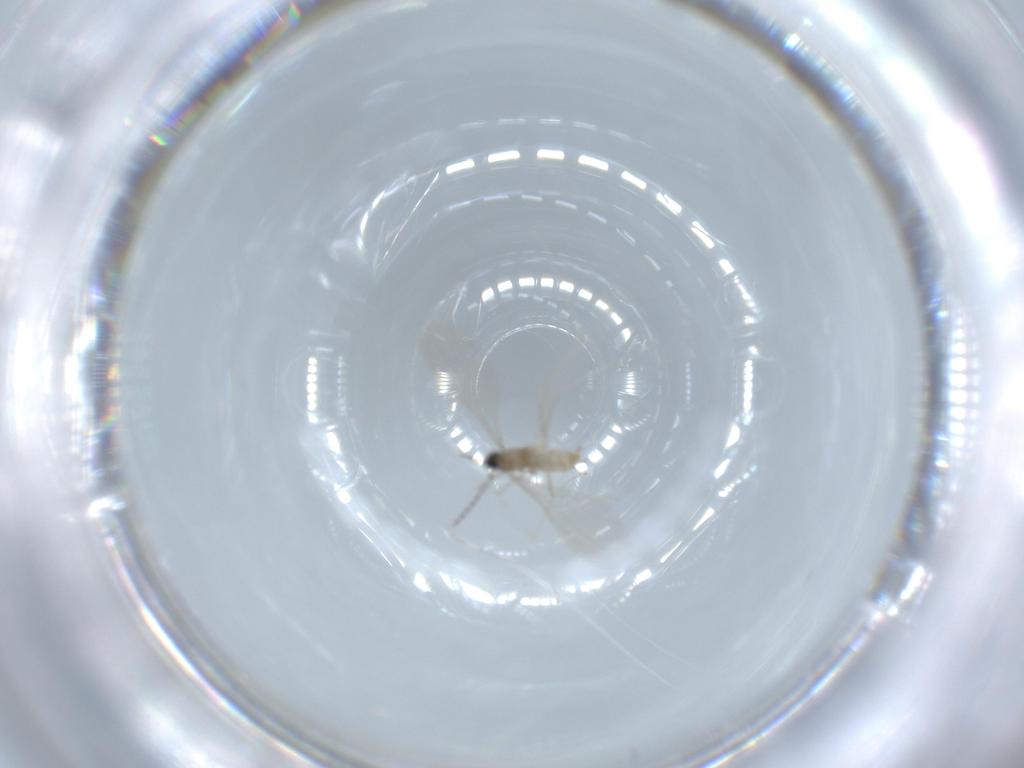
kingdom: Animalia
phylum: Arthropoda
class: Insecta
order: Diptera
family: Cecidomyiidae
